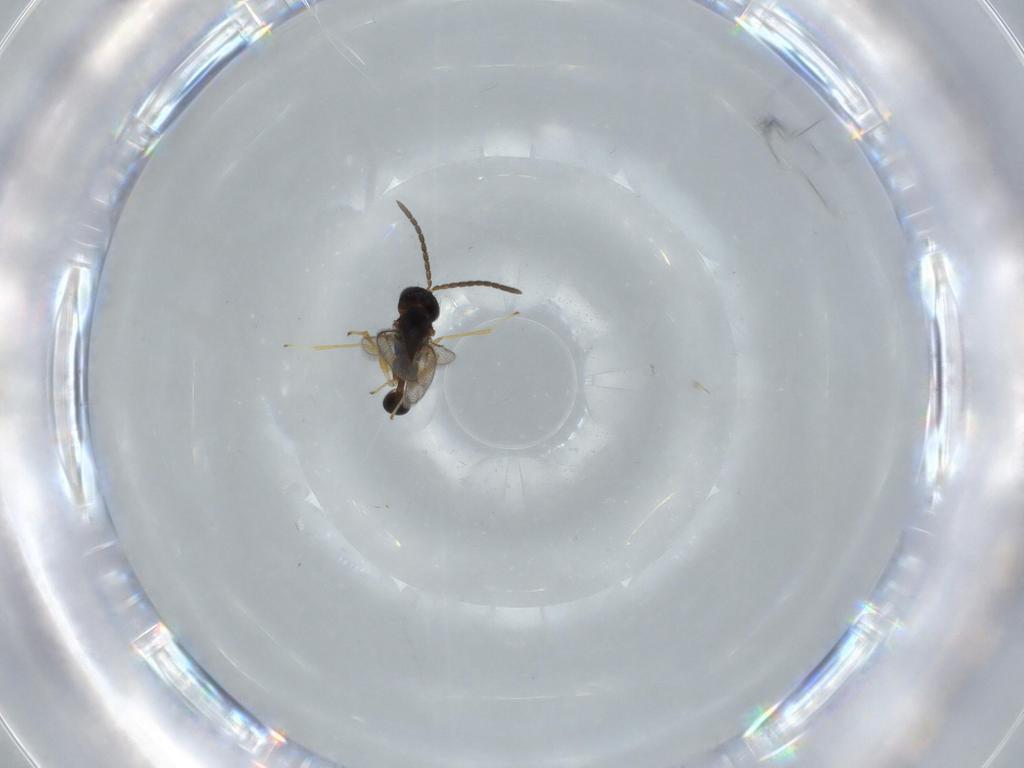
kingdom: Animalia
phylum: Arthropoda
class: Insecta
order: Hymenoptera
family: Diparidae
